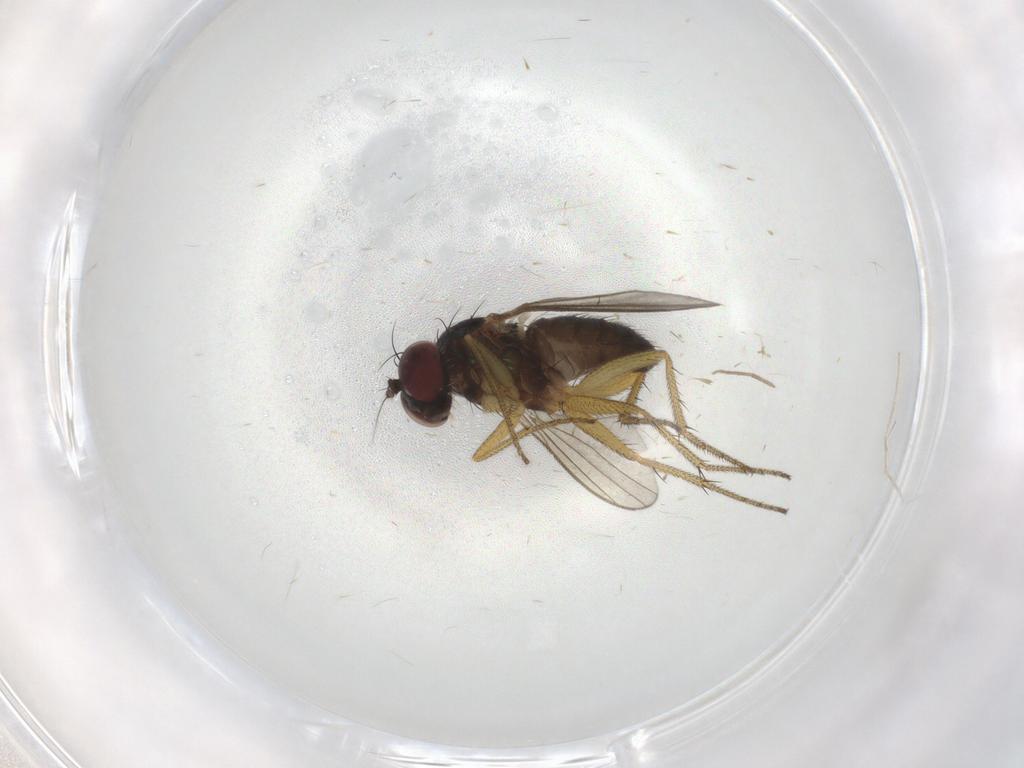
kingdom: Animalia
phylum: Arthropoda
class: Insecta
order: Diptera
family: Dolichopodidae
